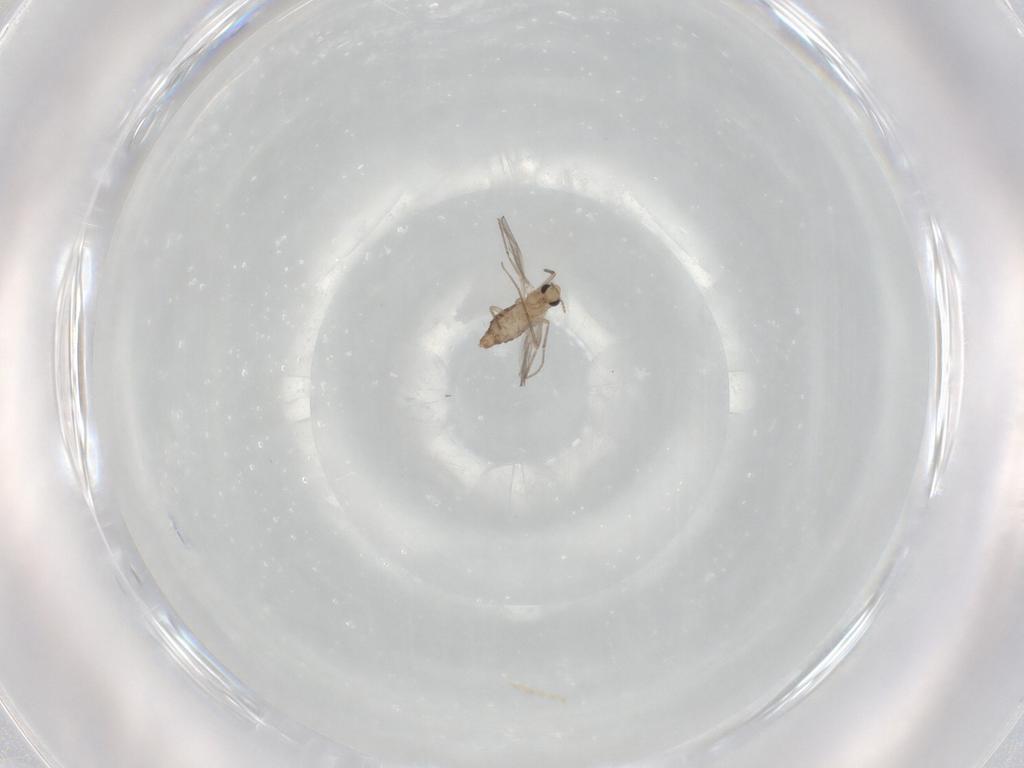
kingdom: Animalia
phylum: Arthropoda
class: Insecta
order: Diptera
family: Chironomidae
